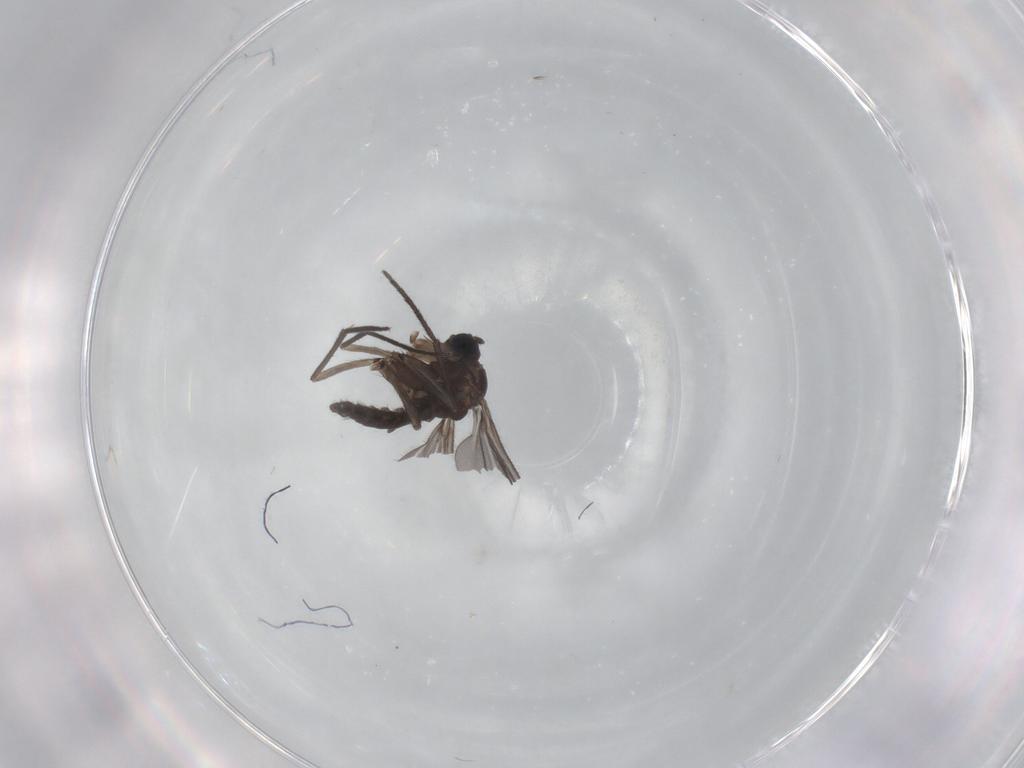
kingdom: Animalia
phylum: Arthropoda
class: Insecta
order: Diptera
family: Sciaridae
